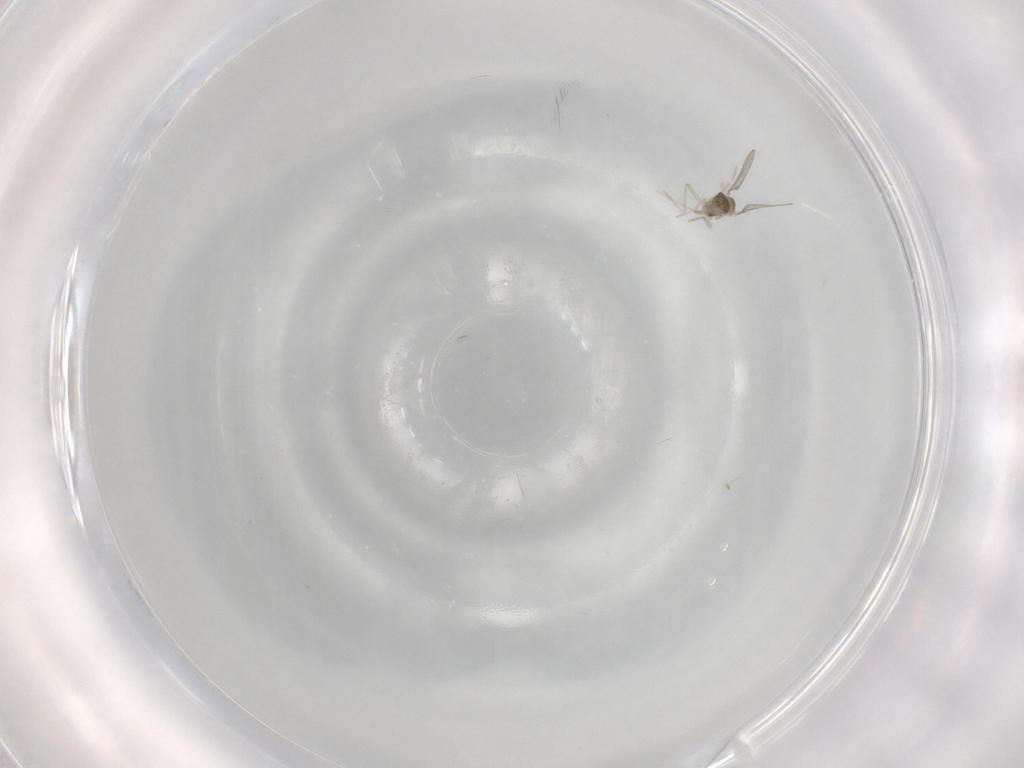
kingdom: Animalia
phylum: Arthropoda
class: Insecta
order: Diptera
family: Cecidomyiidae
